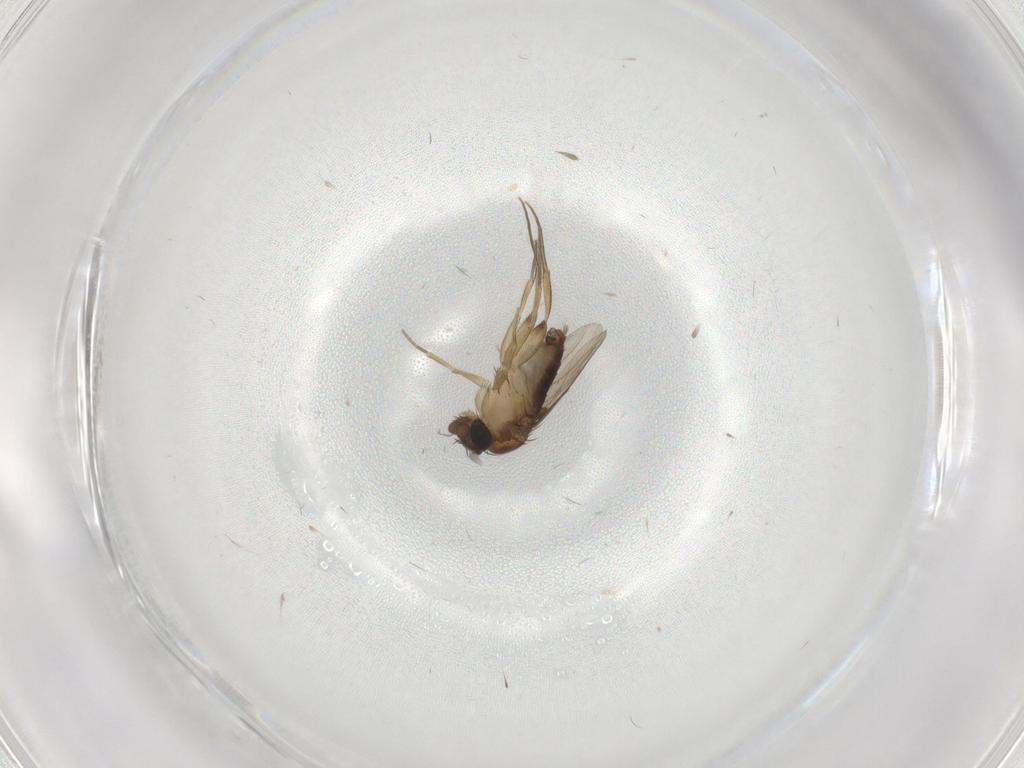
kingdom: Animalia
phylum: Arthropoda
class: Insecta
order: Diptera
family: Phoridae
